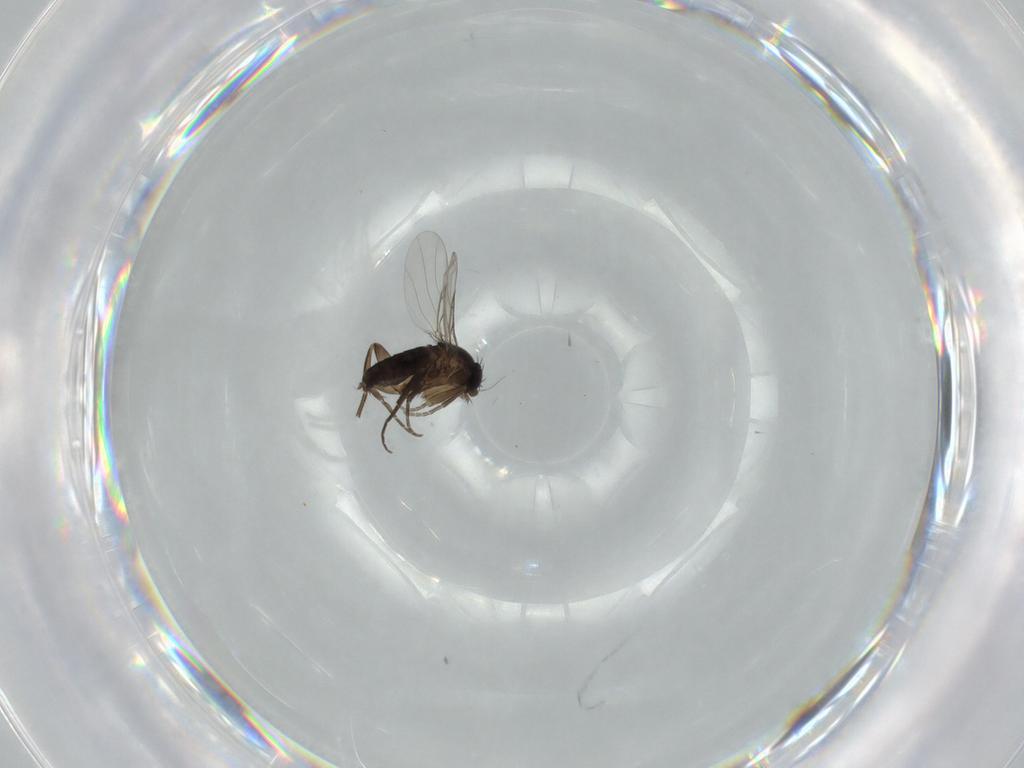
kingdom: Animalia
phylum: Arthropoda
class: Insecta
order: Diptera
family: Phoridae
